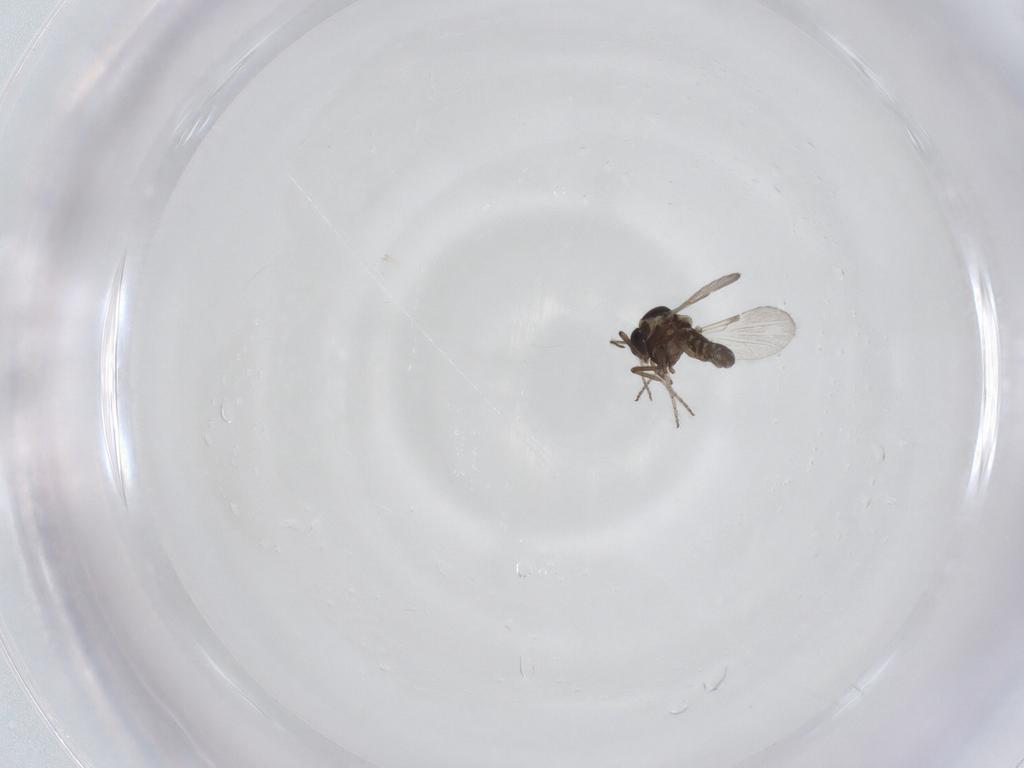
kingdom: Animalia
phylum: Arthropoda
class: Insecta
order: Diptera
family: Ceratopogonidae
